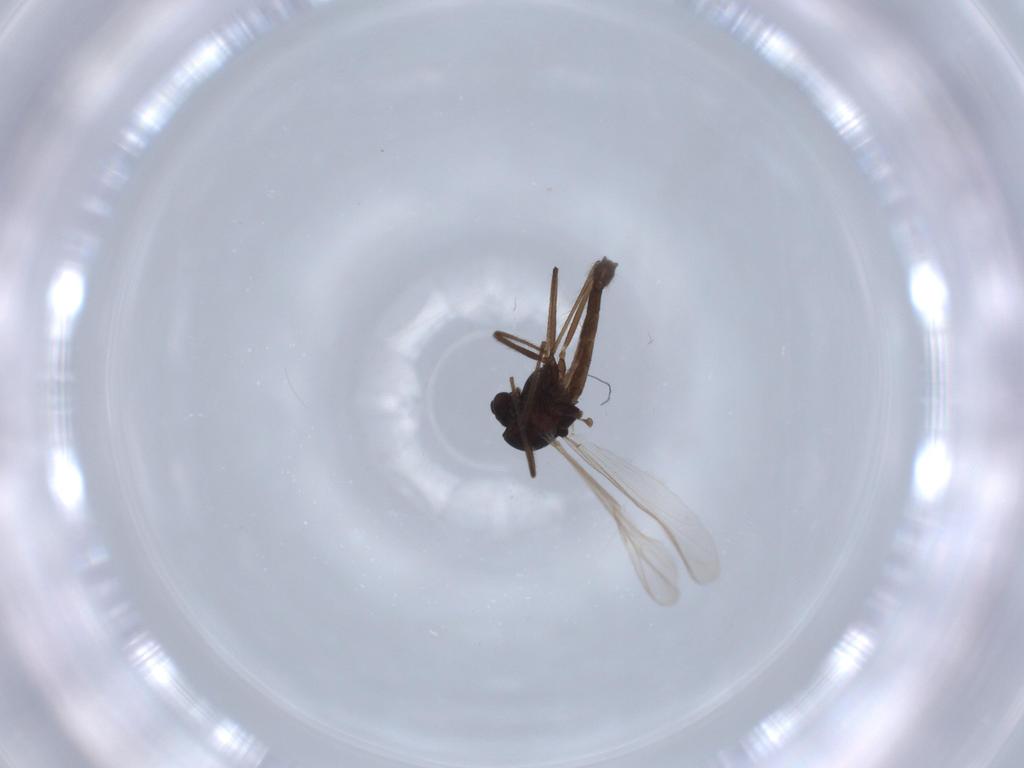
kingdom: Animalia
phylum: Arthropoda
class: Insecta
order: Diptera
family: Chironomidae
